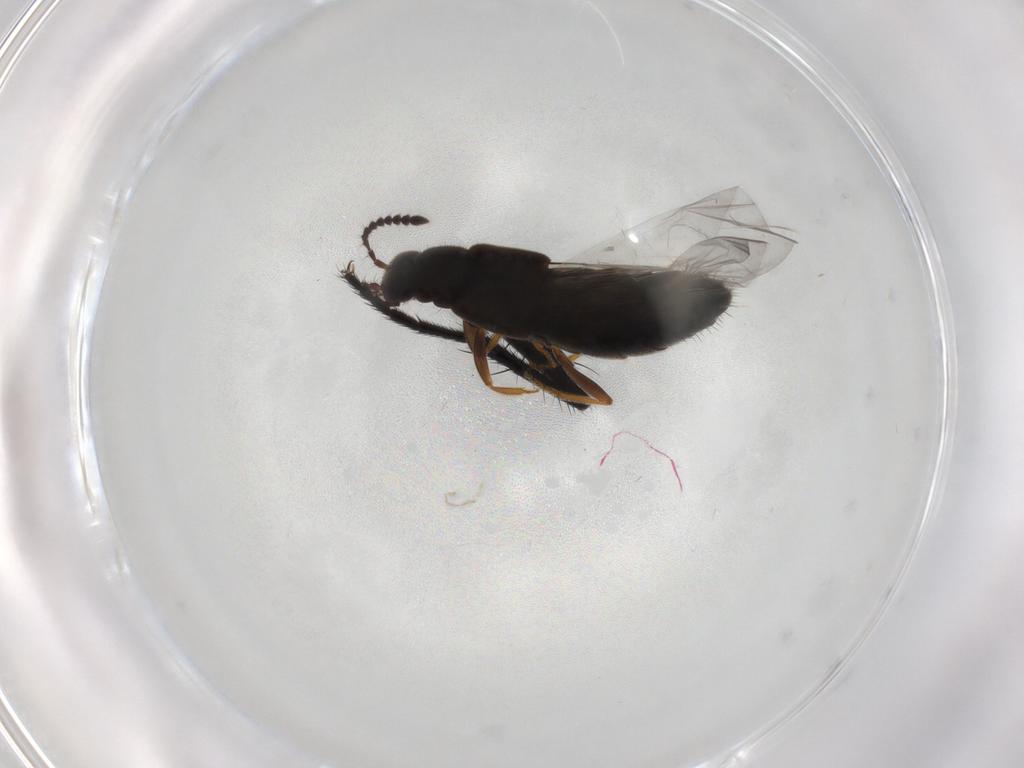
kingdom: Animalia
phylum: Arthropoda
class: Insecta
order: Coleoptera
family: Staphylinidae
